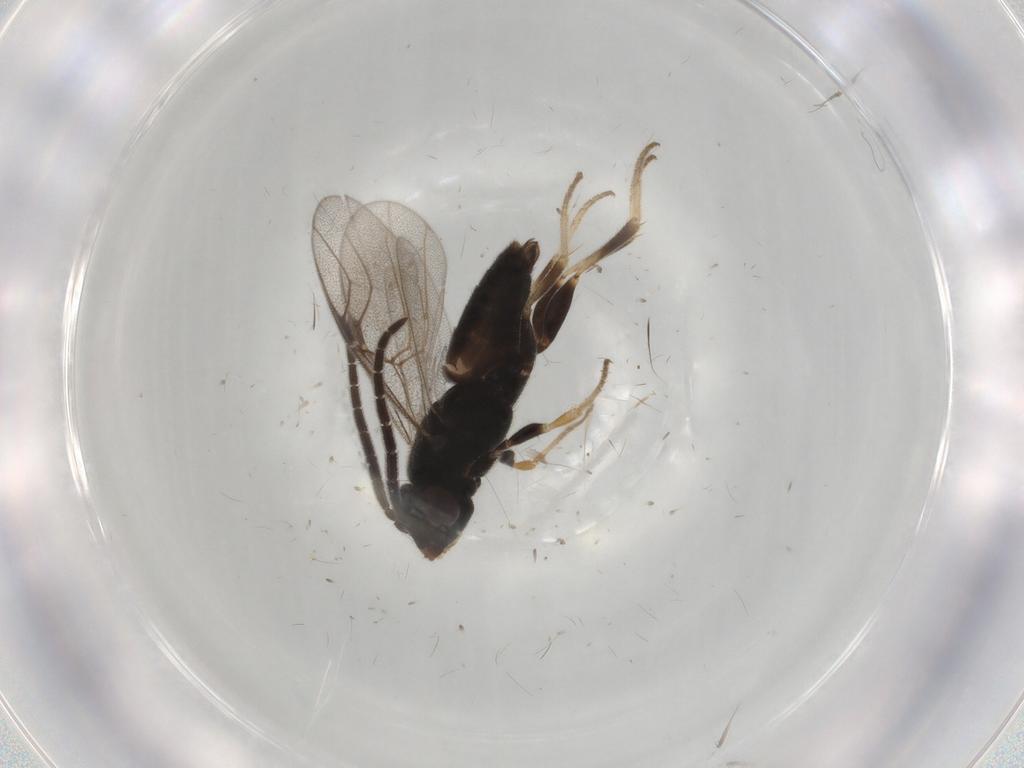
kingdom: Animalia
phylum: Arthropoda
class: Insecta
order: Hymenoptera
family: Dryinidae
